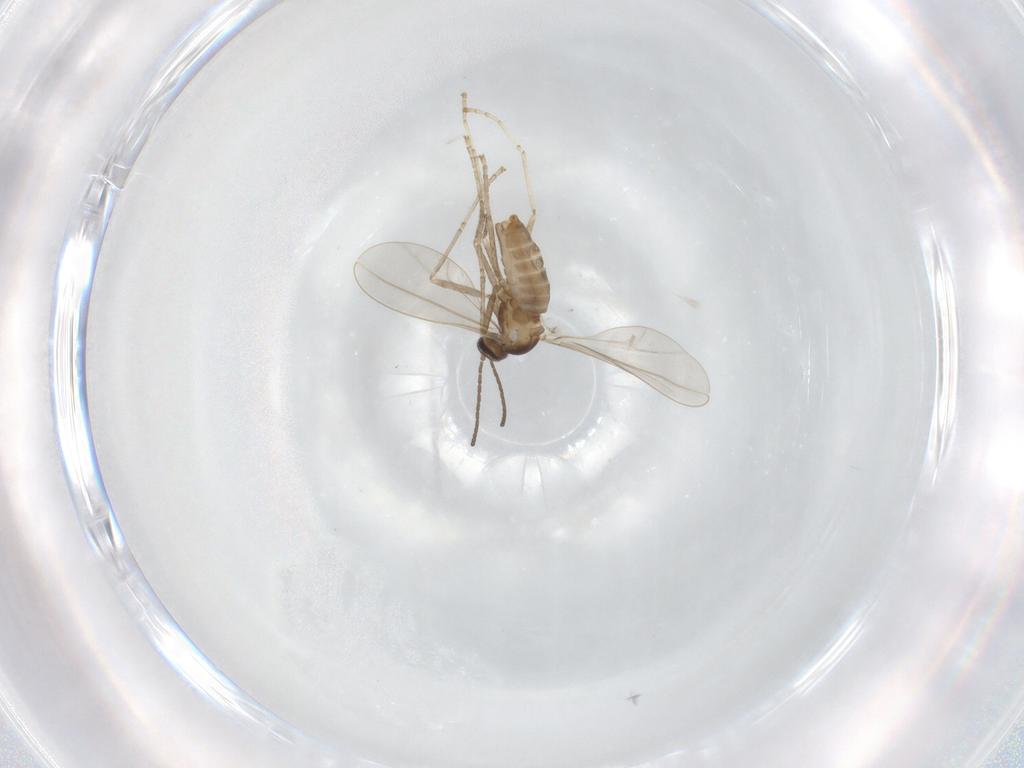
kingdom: Animalia
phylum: Arthropoda
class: Insecta
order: Diptera
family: Cecidomyiidae
